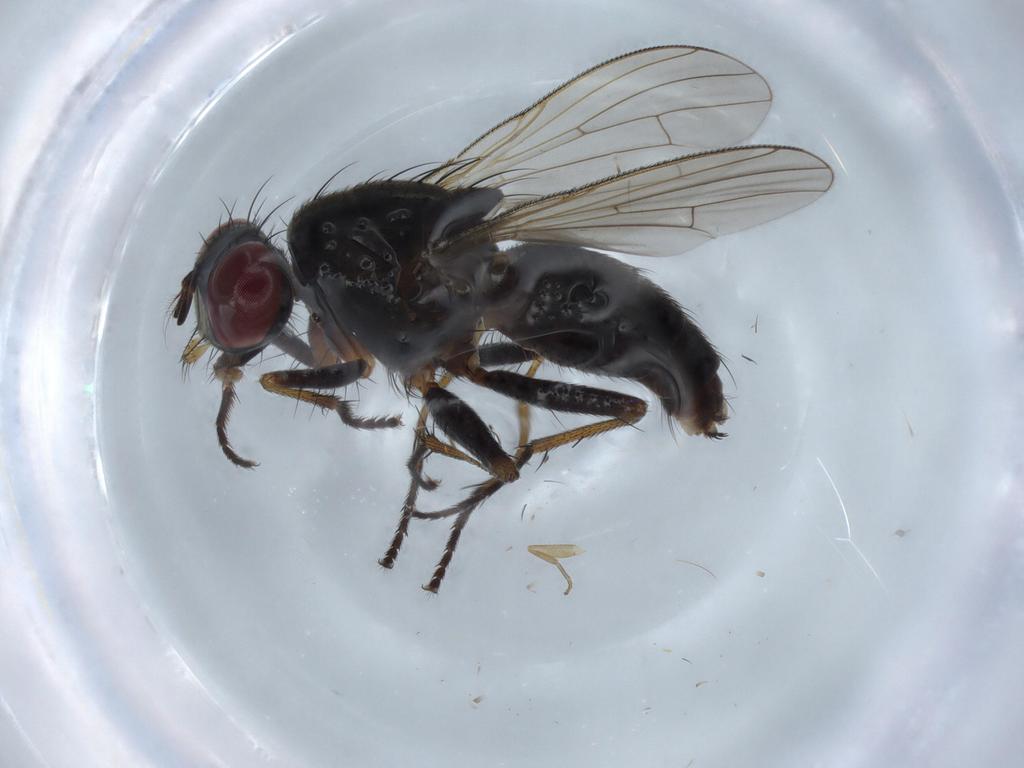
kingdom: Animalia
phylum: Arthropoda
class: Insecta
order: Diptera
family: Muscidae
